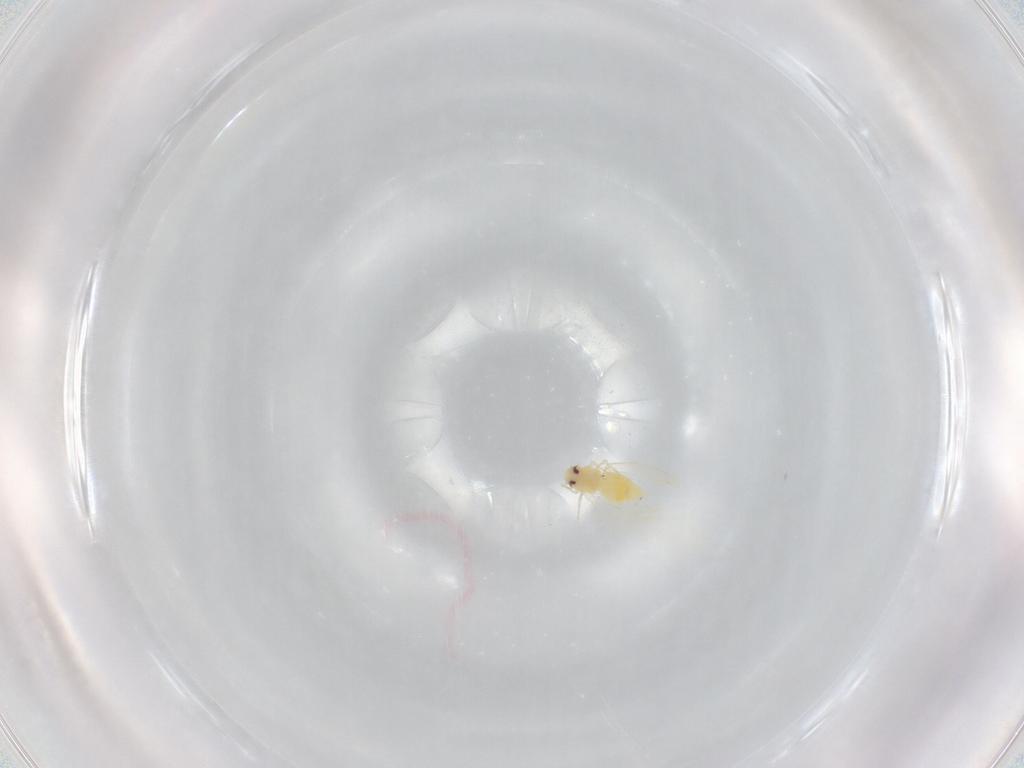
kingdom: Animalia
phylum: Arthropoda
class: Insecta
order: Hemiptera
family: Aleyrodidae
